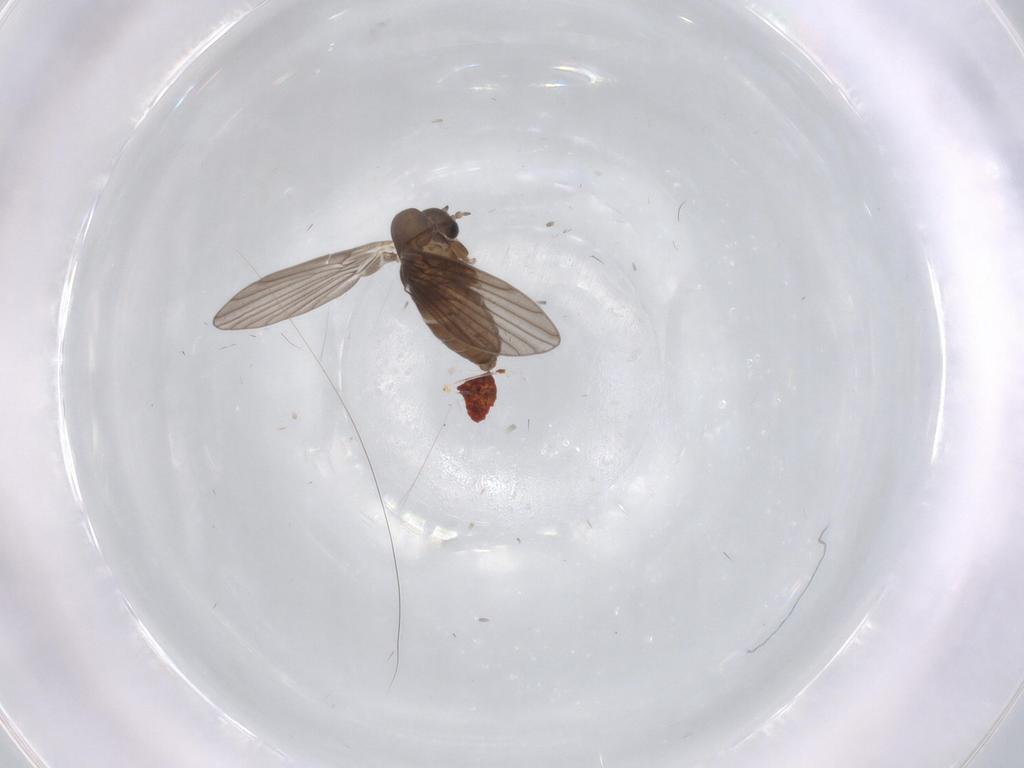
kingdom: Animalia
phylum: Arthropoda
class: Insecta
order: Diptera
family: Psychodidae
